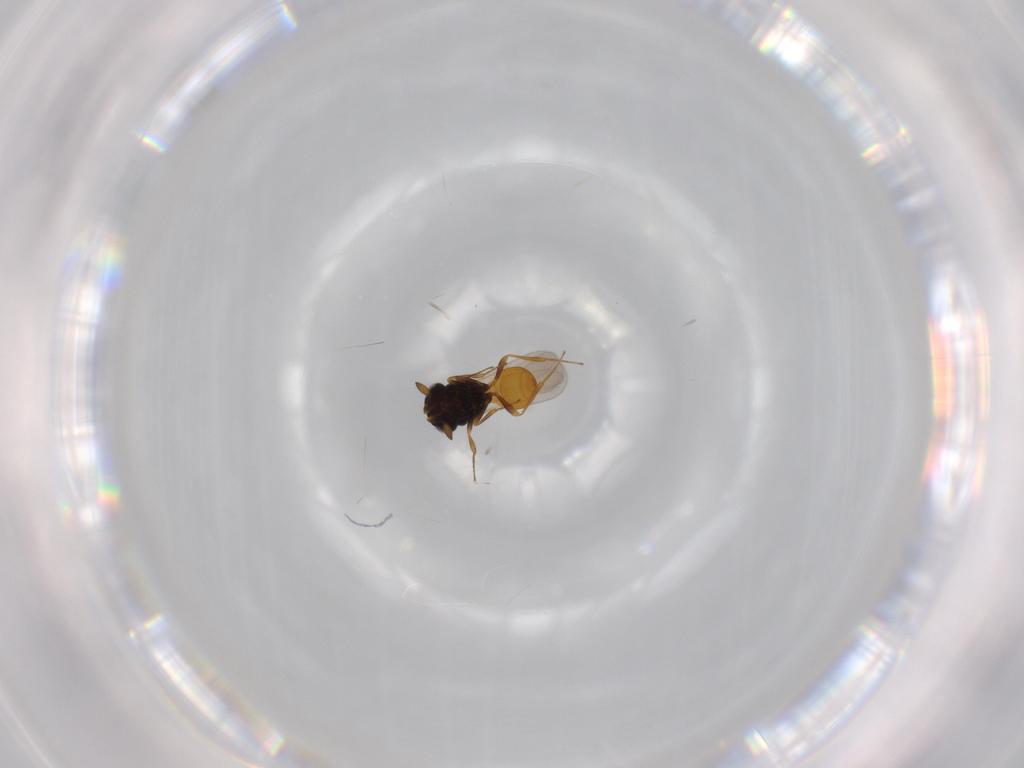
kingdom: Animalia
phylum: Arthropoda
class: Insecta
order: Hymenoptera
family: Scelionidae
